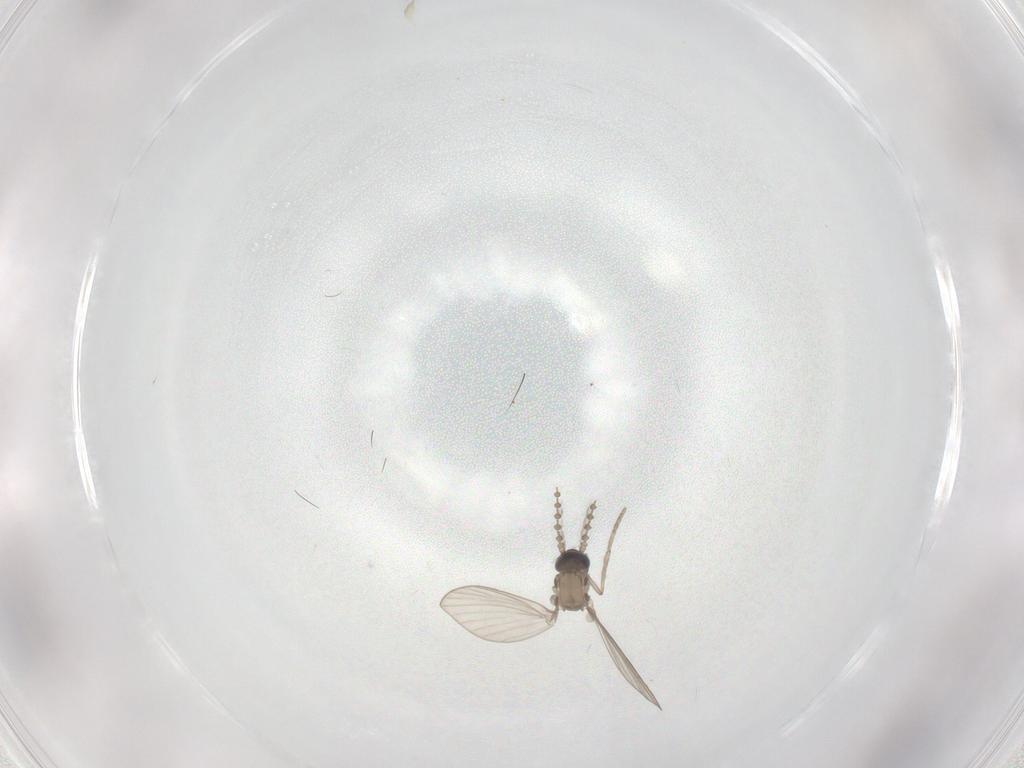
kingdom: Animalia
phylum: Arthropoda
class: Insecta
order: Diptera
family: Psychodidae
